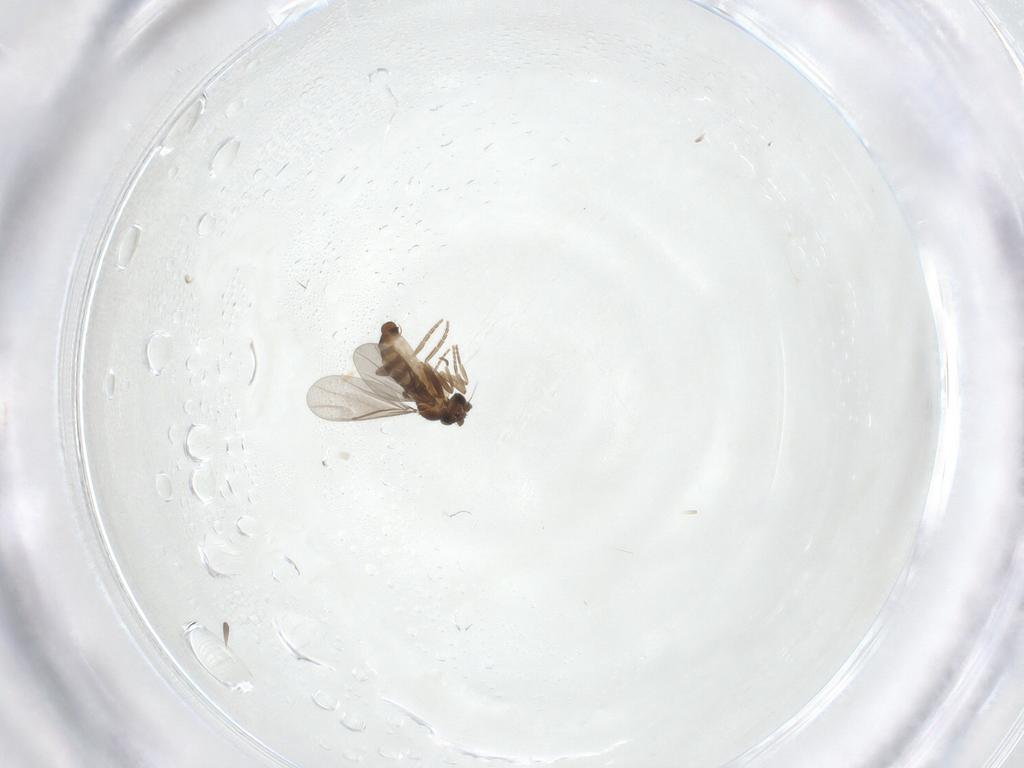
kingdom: Animalia
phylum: Arthropoda
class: Insecta
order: Diptera
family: Psychodidae
